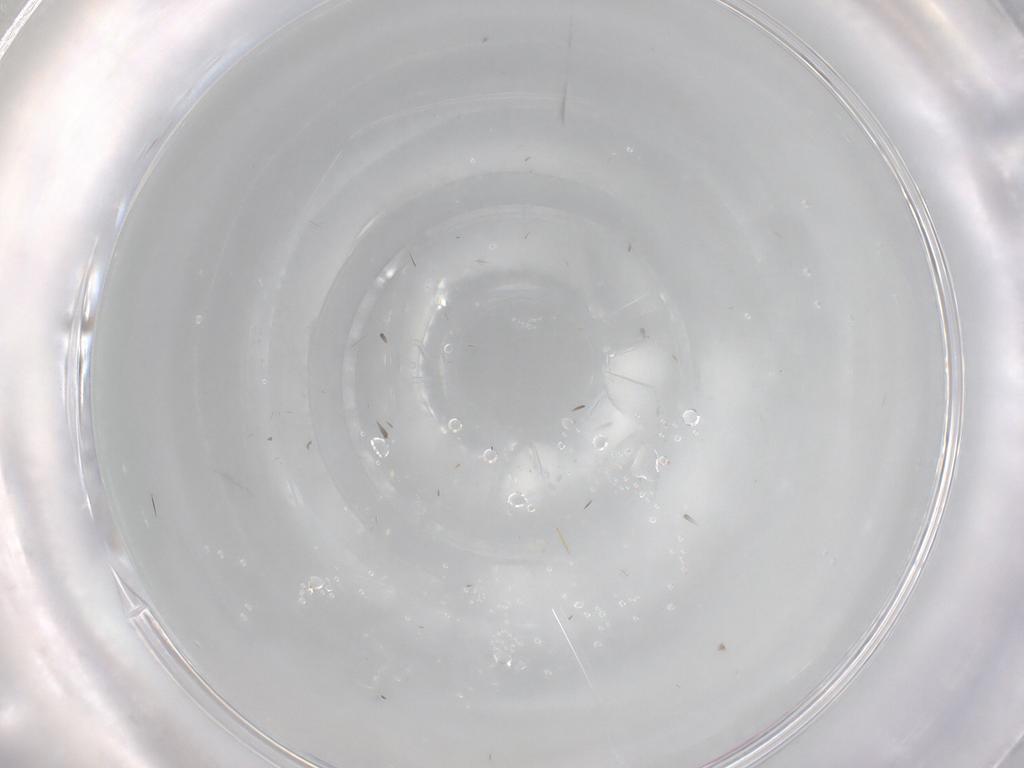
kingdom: Animalia
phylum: Arthropoda
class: Insecta
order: Hymenoptera
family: Mymaridae
